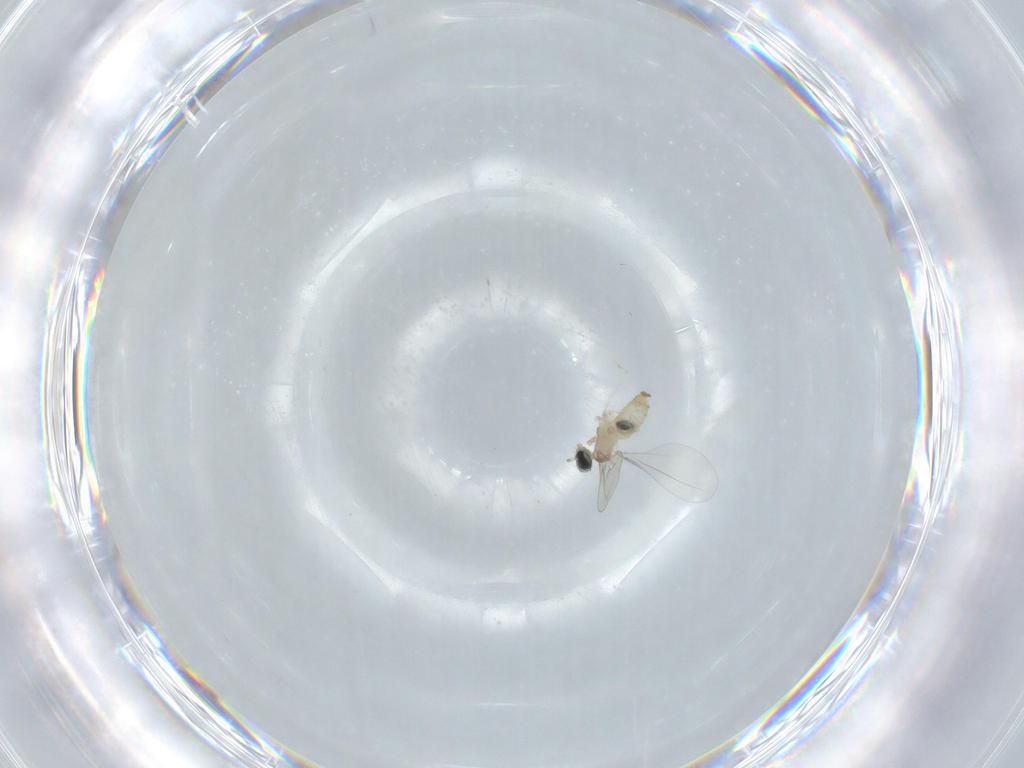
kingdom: Animalia
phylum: Arthropoda
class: Insecta
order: Diptera
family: Cecidomyiidae
